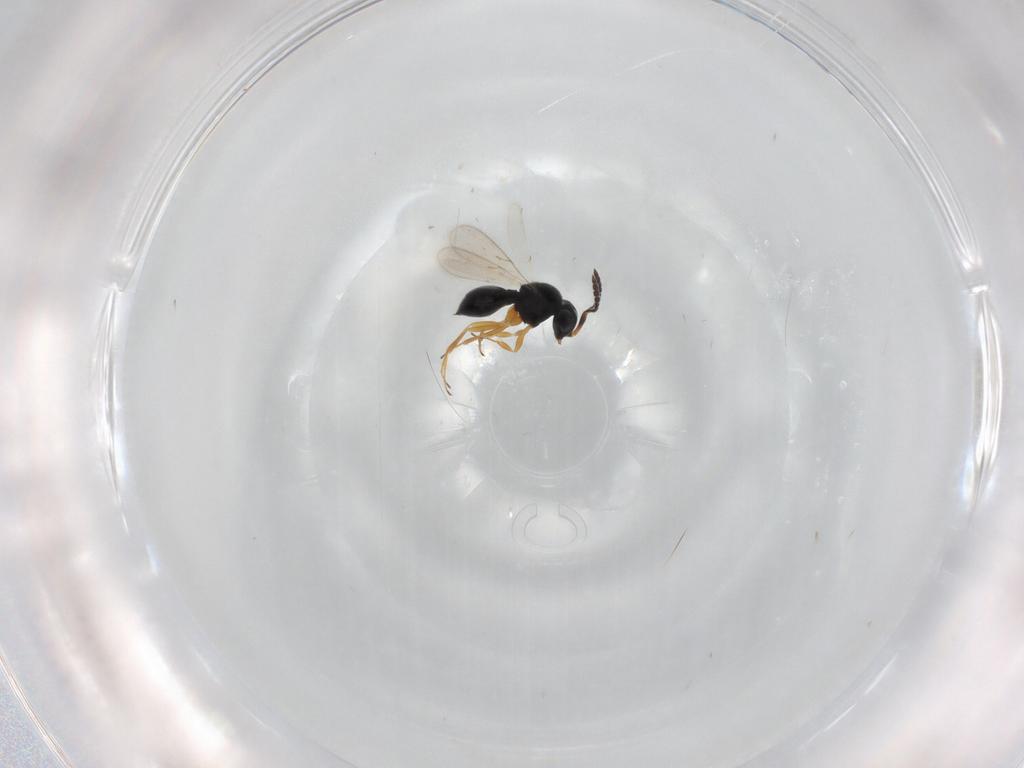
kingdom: Animalia
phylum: Arthropoda
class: Insecta
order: Hymenoptera
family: Scelionidae
